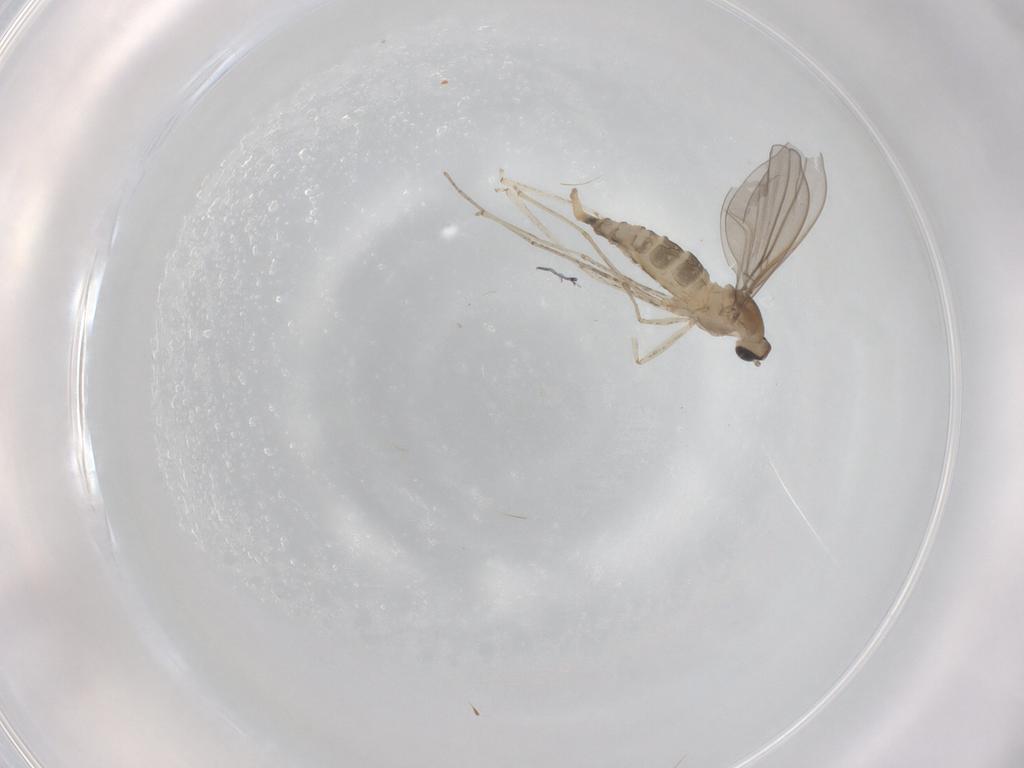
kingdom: Animalia
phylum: Arthropoda
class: Insecta
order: Diptera
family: Cecidomyiidae
